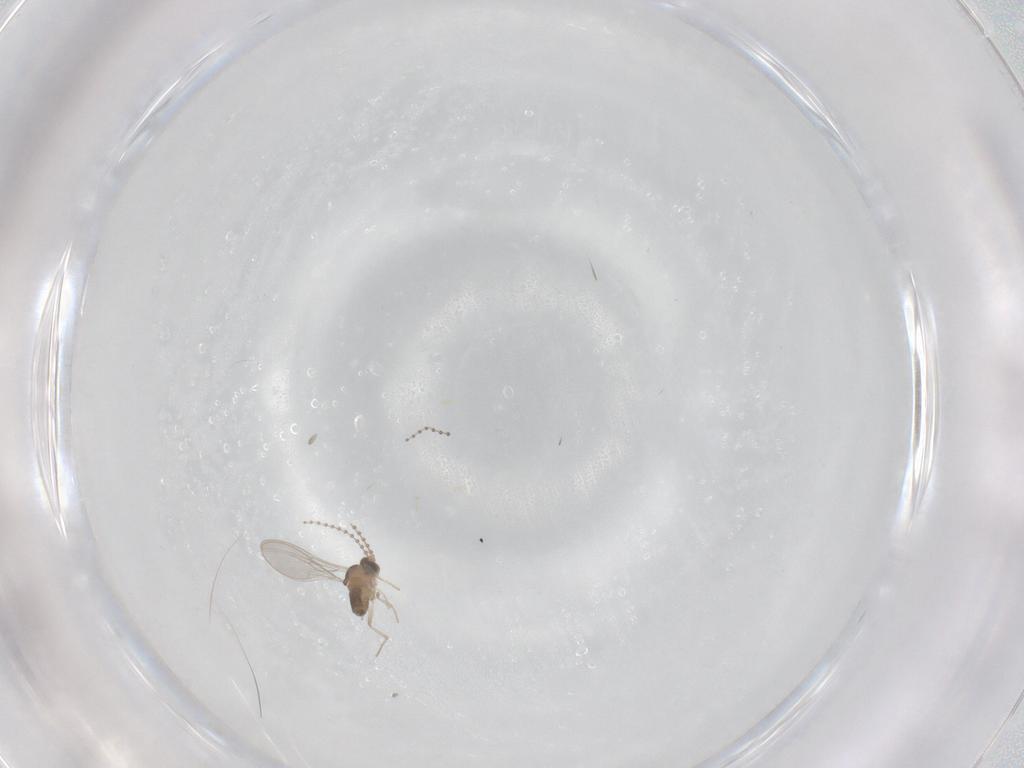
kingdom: Animalia
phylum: Arthropoda
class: Insecta
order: Diptera
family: Cecidomyiidae
